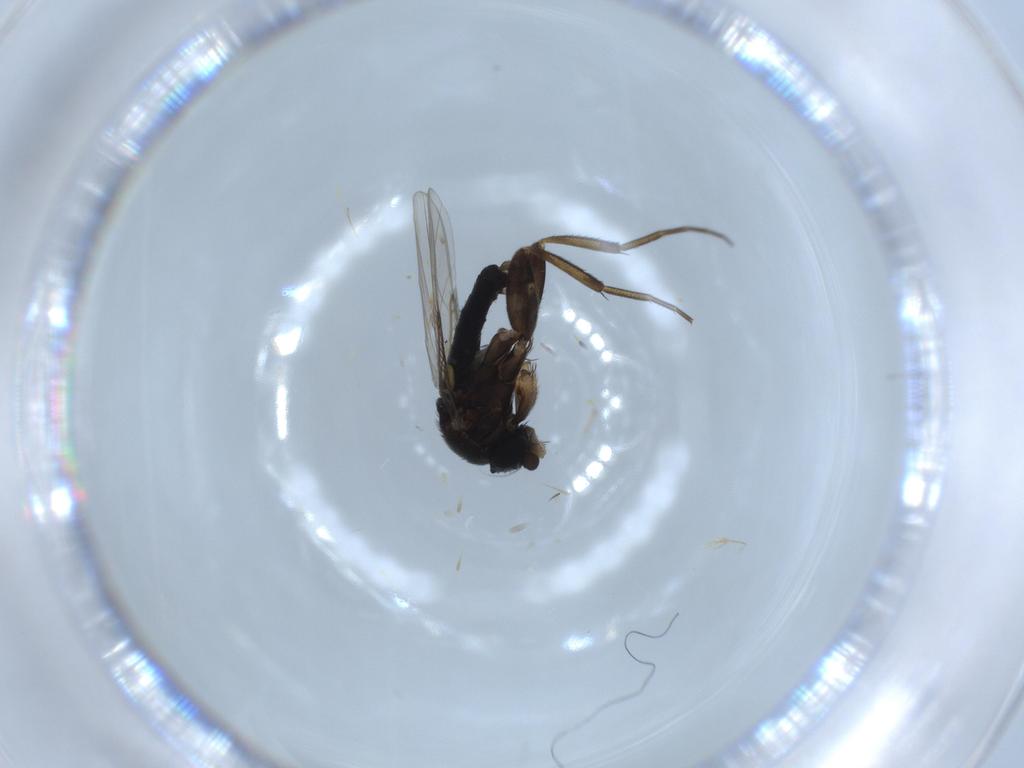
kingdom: Animalia
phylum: Arthropoda
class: Insecta
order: Diptera
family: Phoridae
